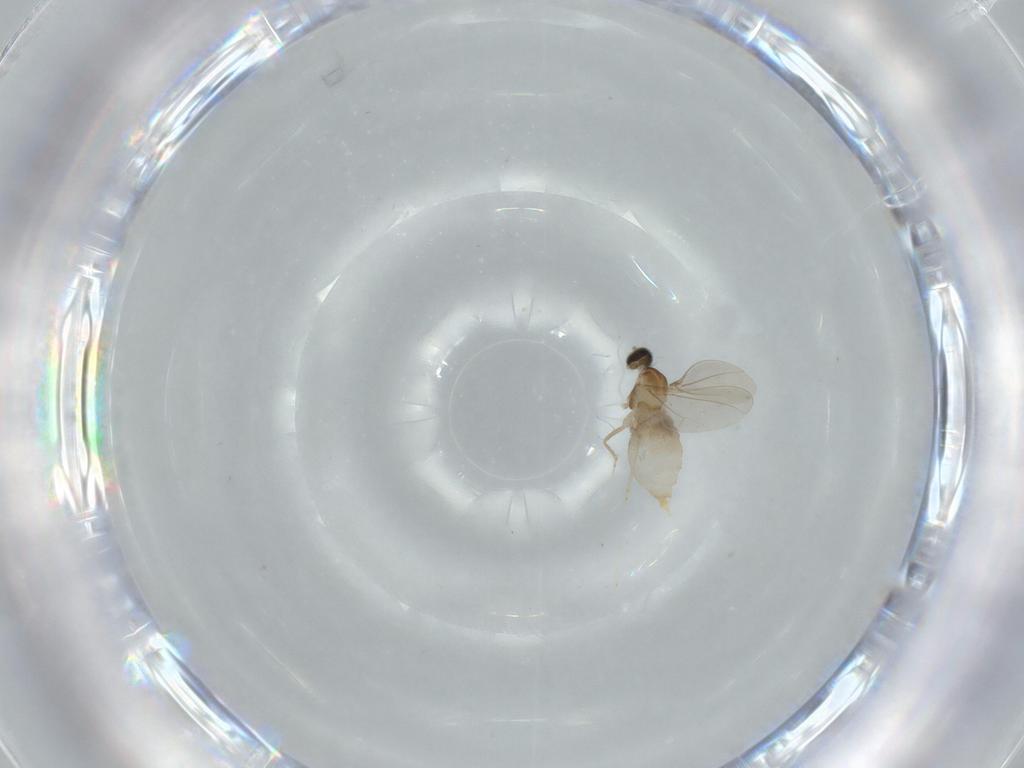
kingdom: Animalia
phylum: Arthropoda
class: Insecta
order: Diptera
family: Cecidomyiidae
